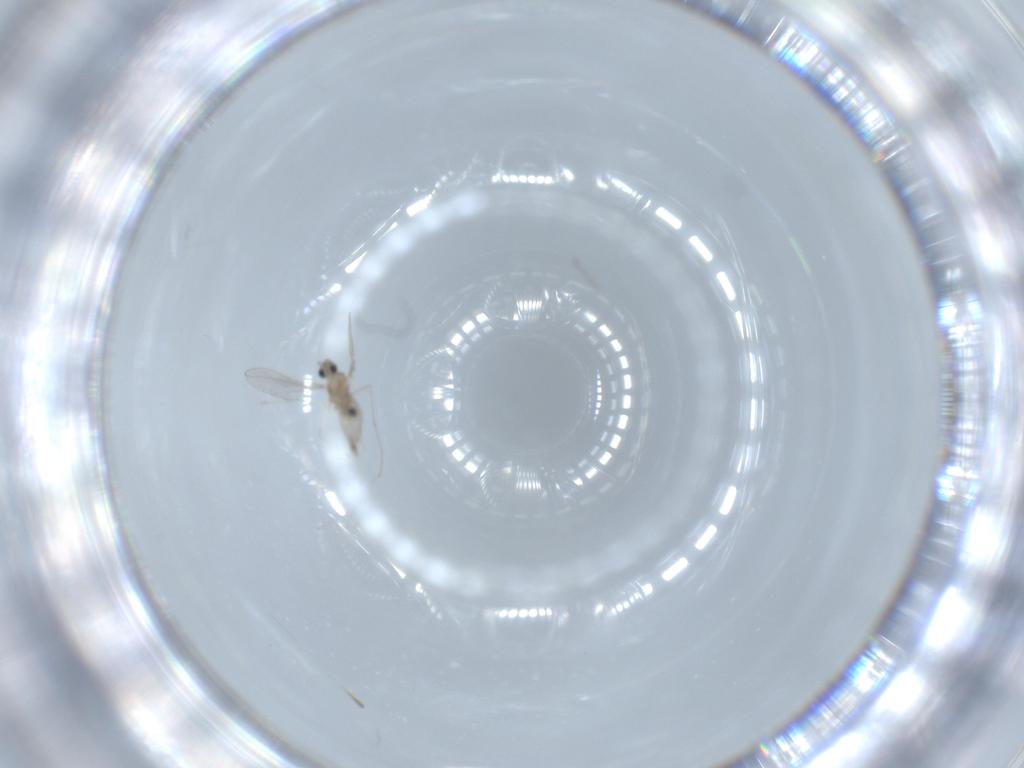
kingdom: Animalia
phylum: Arthropoda
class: Insecta
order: Diptera
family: Cecidomyiidae
